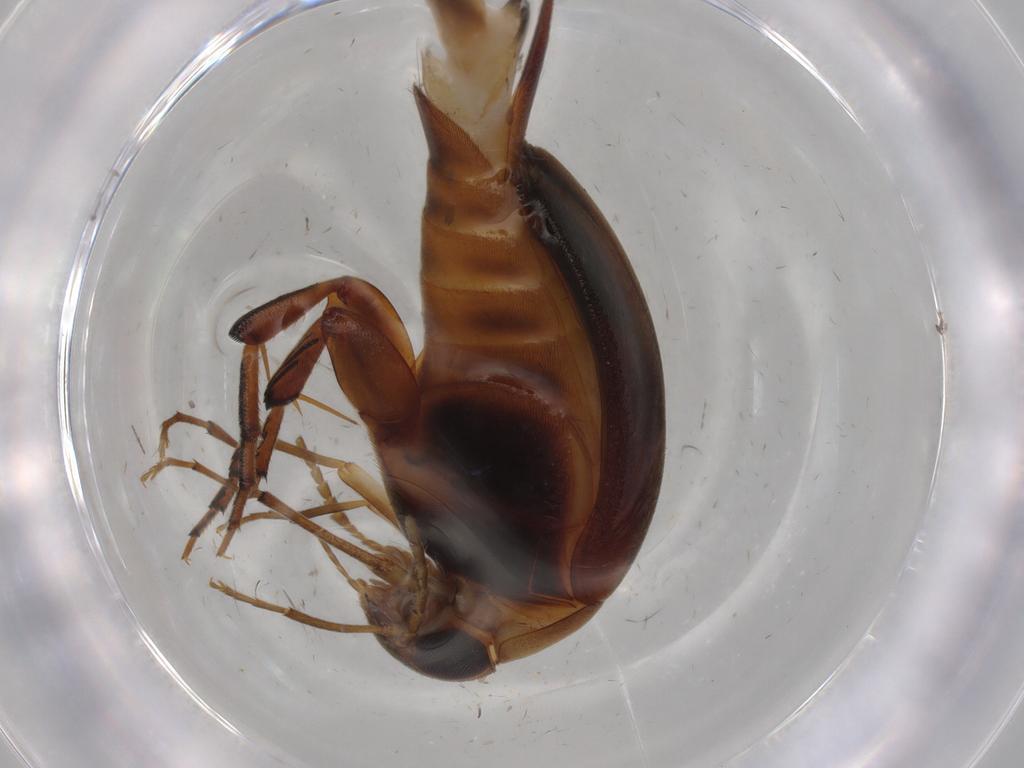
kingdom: Animalia
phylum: Arthropoda
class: Insecta
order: Coleoptera
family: Mordellidae
